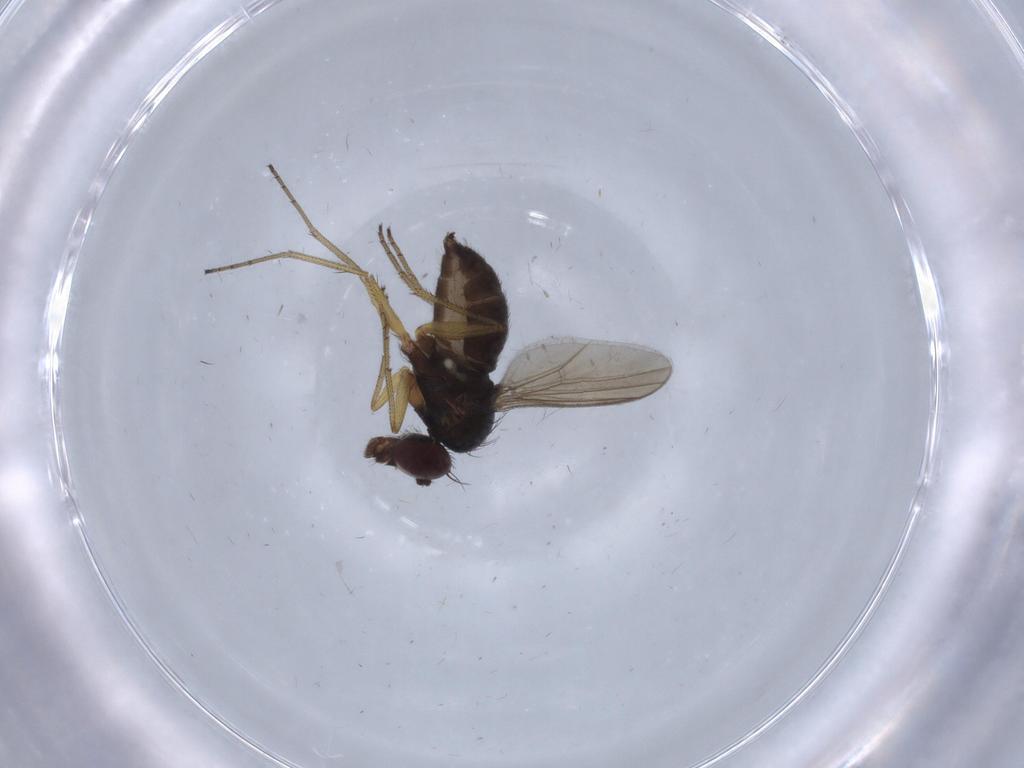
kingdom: Animalia
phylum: Arthropoda
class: Insecta
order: Diptera
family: Dolichopodidae
